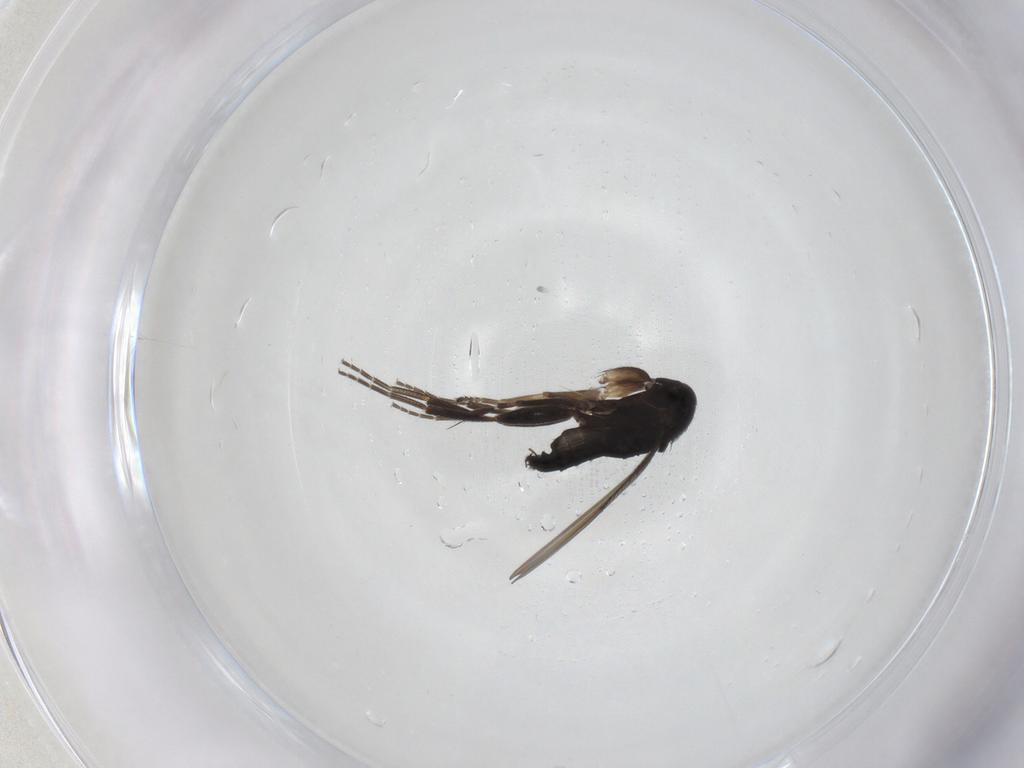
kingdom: Animalia
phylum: Arthropoda
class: Insecta
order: Diptera
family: Phoridae
